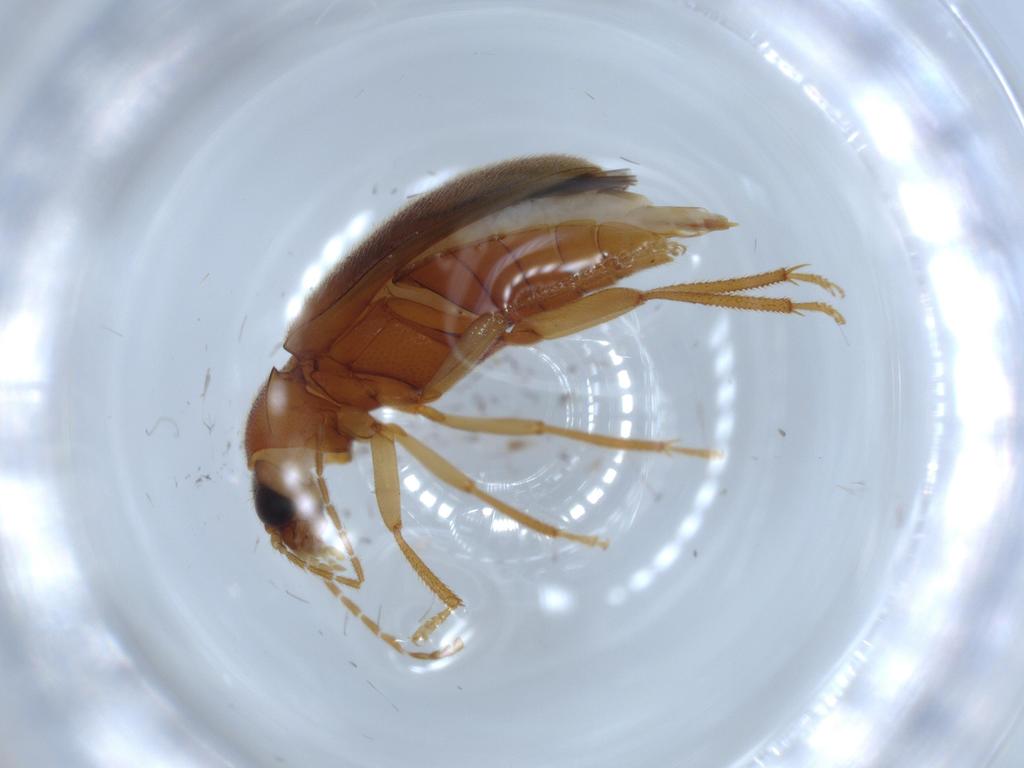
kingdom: Animalia
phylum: Arthropoda
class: Insecta
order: Coleoptera
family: Ptilodactylidae
